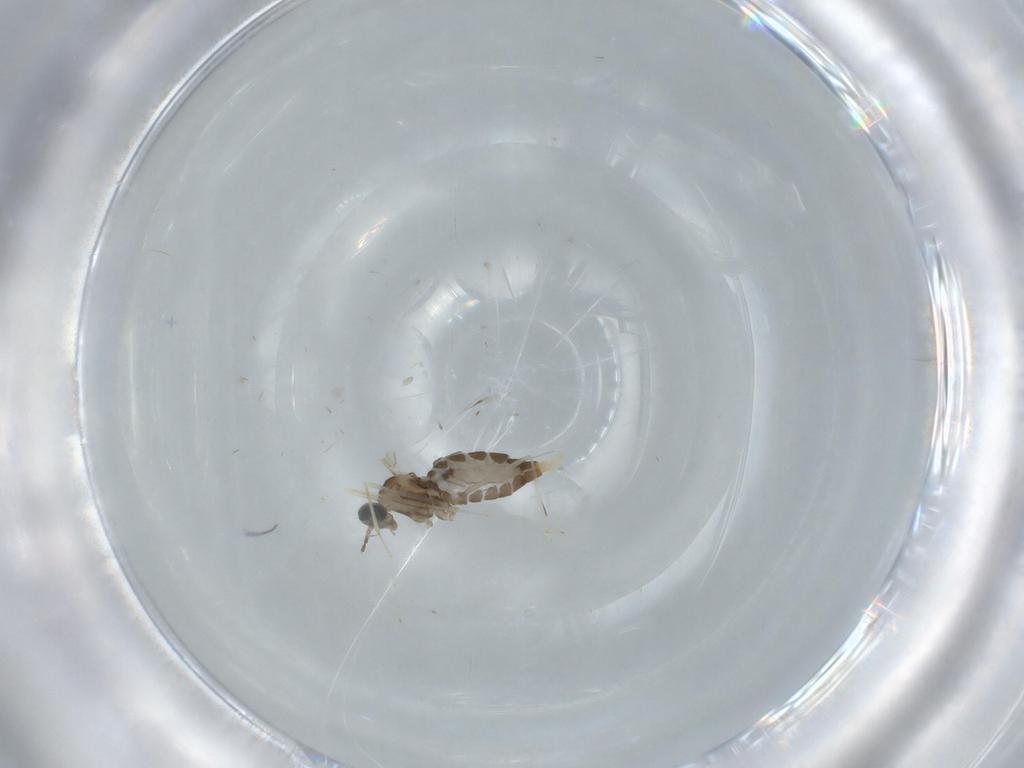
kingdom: Animalia
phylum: Arthropoda
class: Insecta
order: Diptera
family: Cecidomyiidae
